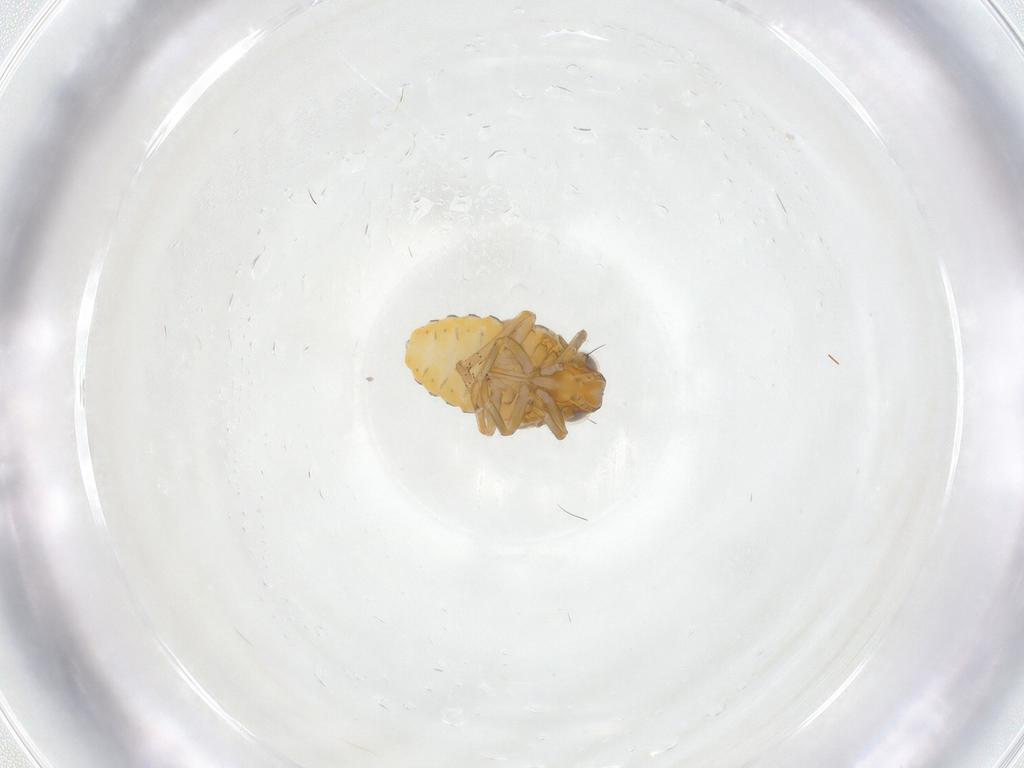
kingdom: Animalia
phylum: Arthropoda
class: Insecta
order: Hemiptera
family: Issidae
